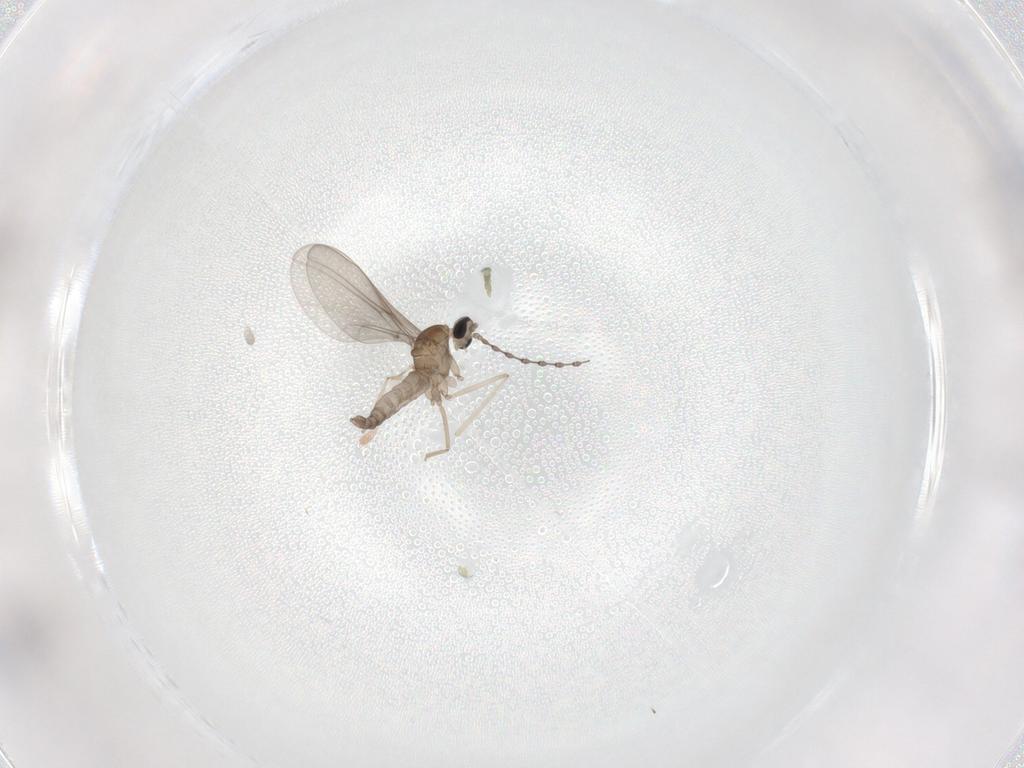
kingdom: Animalia
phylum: Arthropoda
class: Insecta
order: Diptera
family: Cecidomyiidae
